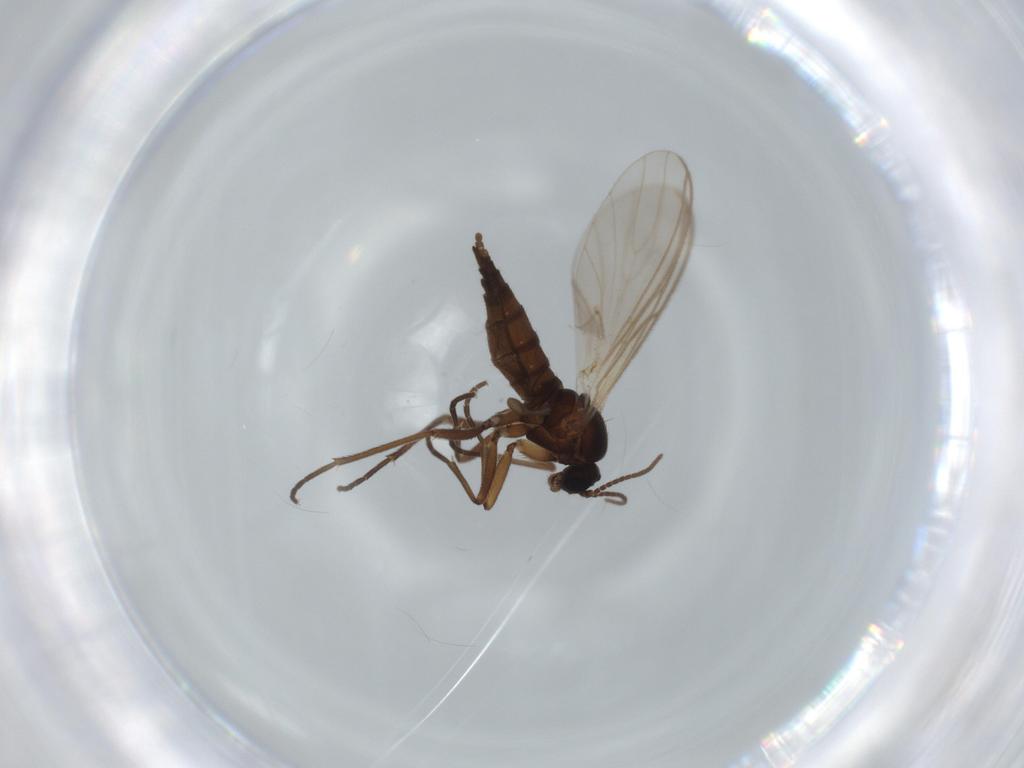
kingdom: Animalia
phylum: Arthropoda
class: Insecta
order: Diptera
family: Sciaridae
